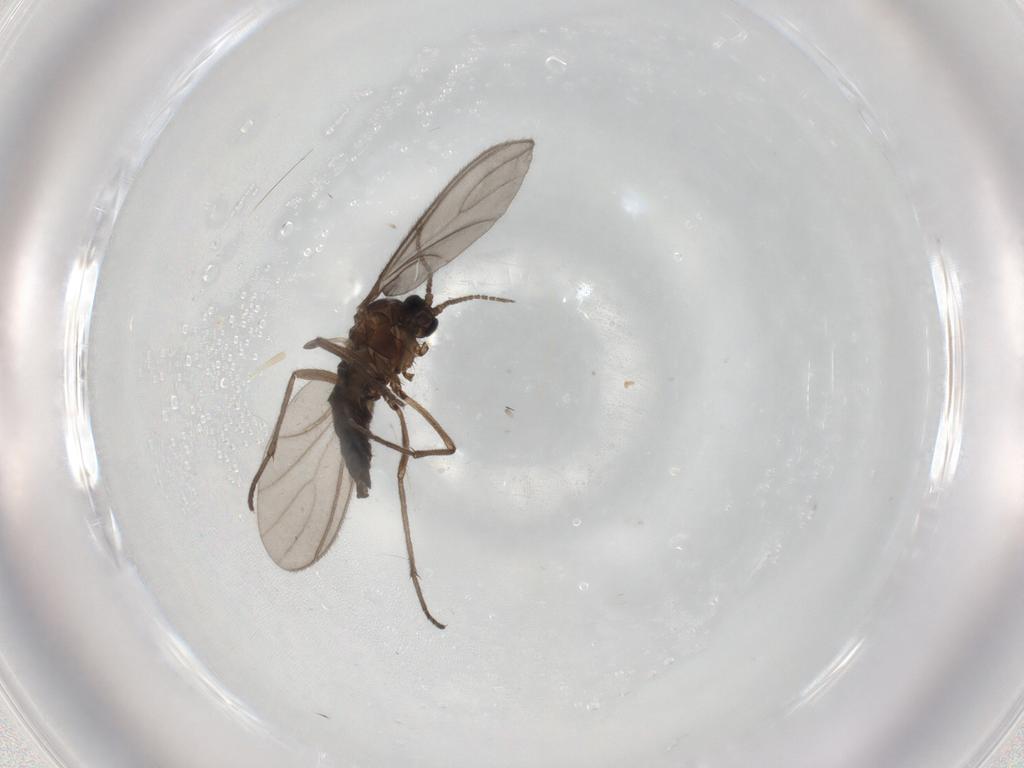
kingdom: Animalia
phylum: Arthropoda
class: Insecta
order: Diptera
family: Sciaridae
